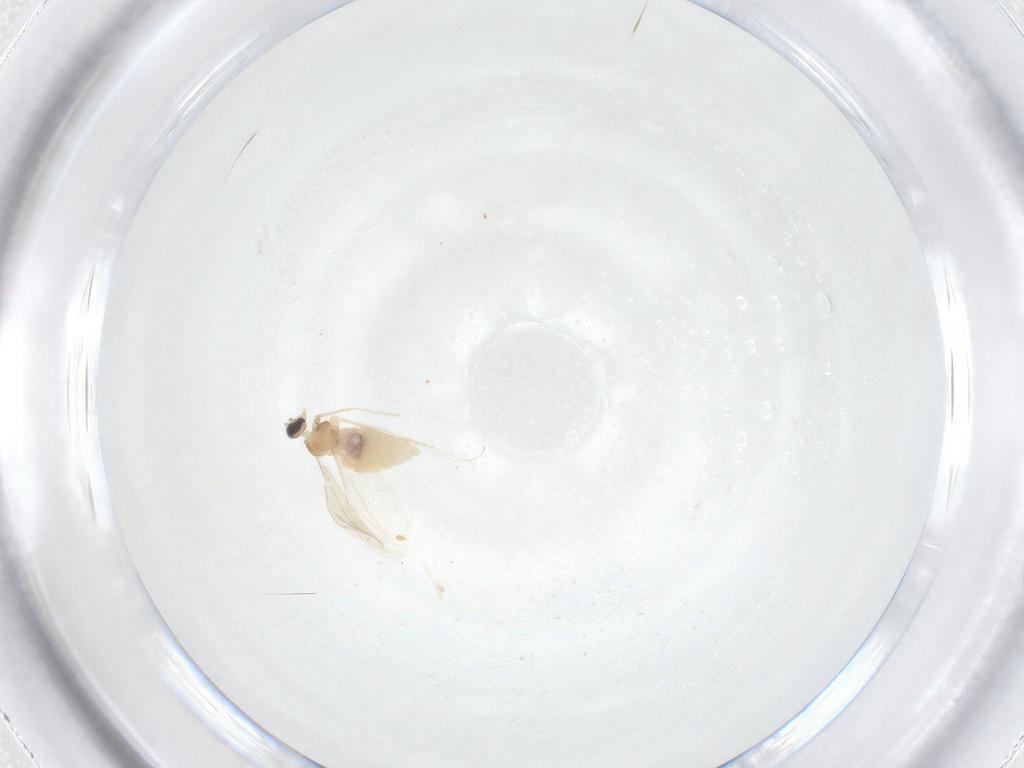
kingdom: Animalia
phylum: Arthropoda
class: Insecta
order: Diptera
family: Cecidomyiidae
